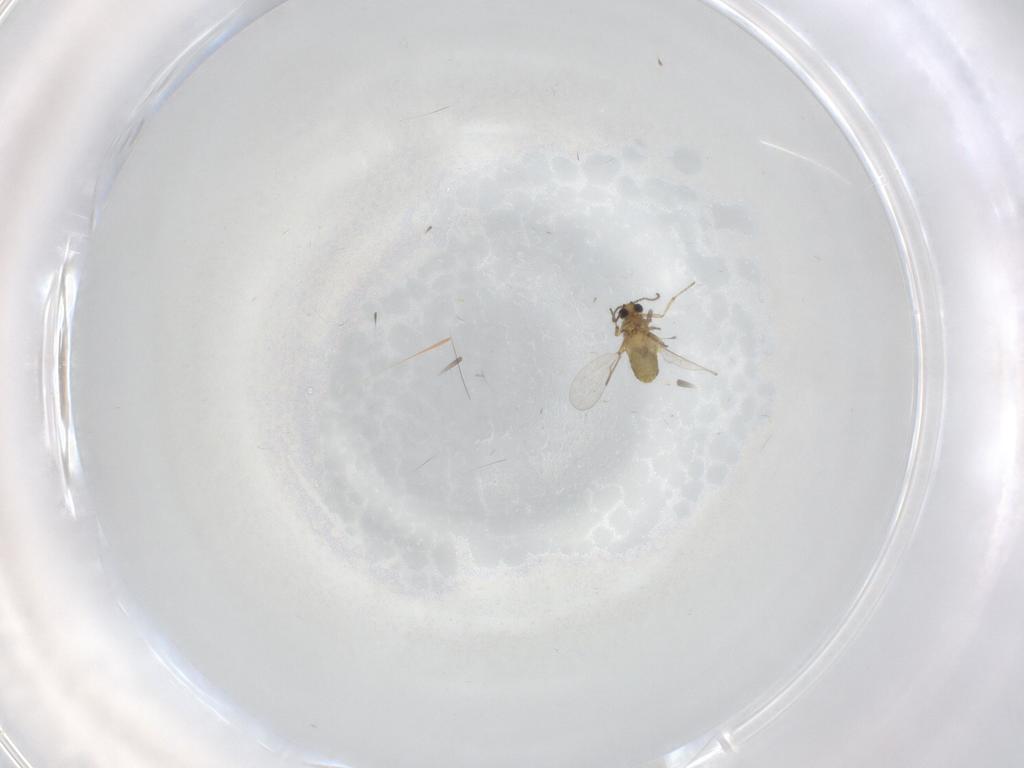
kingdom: Animalia
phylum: Arthropoda
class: Insecta
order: Diptera
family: Ceratopogonidae
